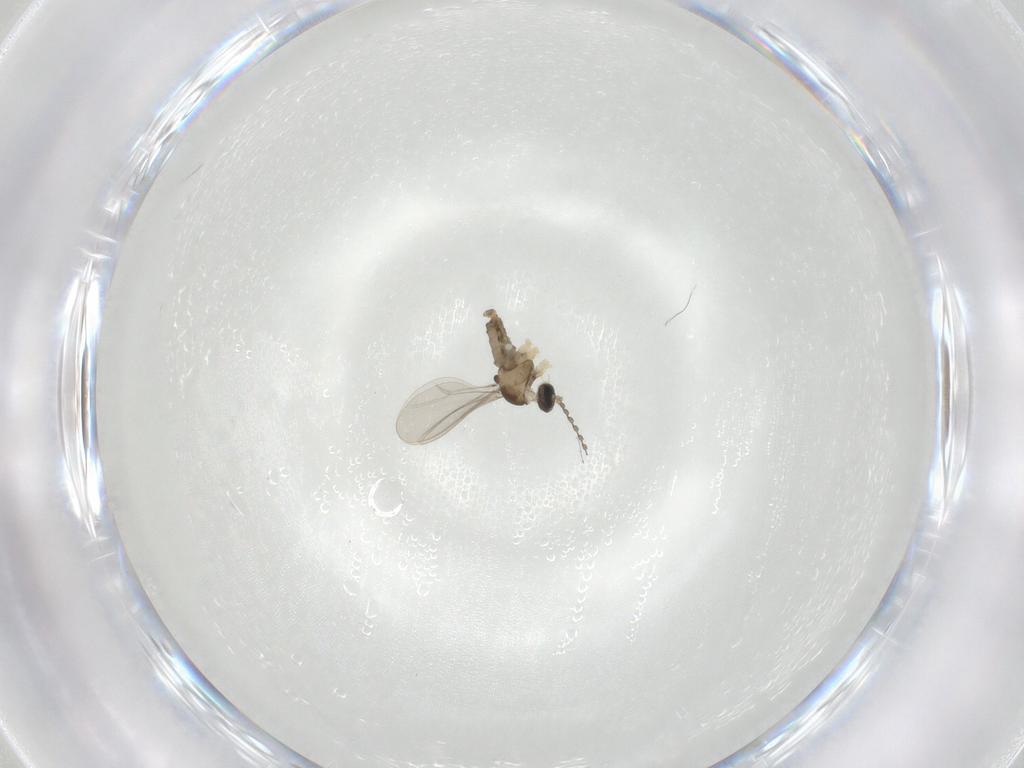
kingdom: Animalia
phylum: Arthropoda
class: Insecta
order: Diptera
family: Cecidomyiidae
